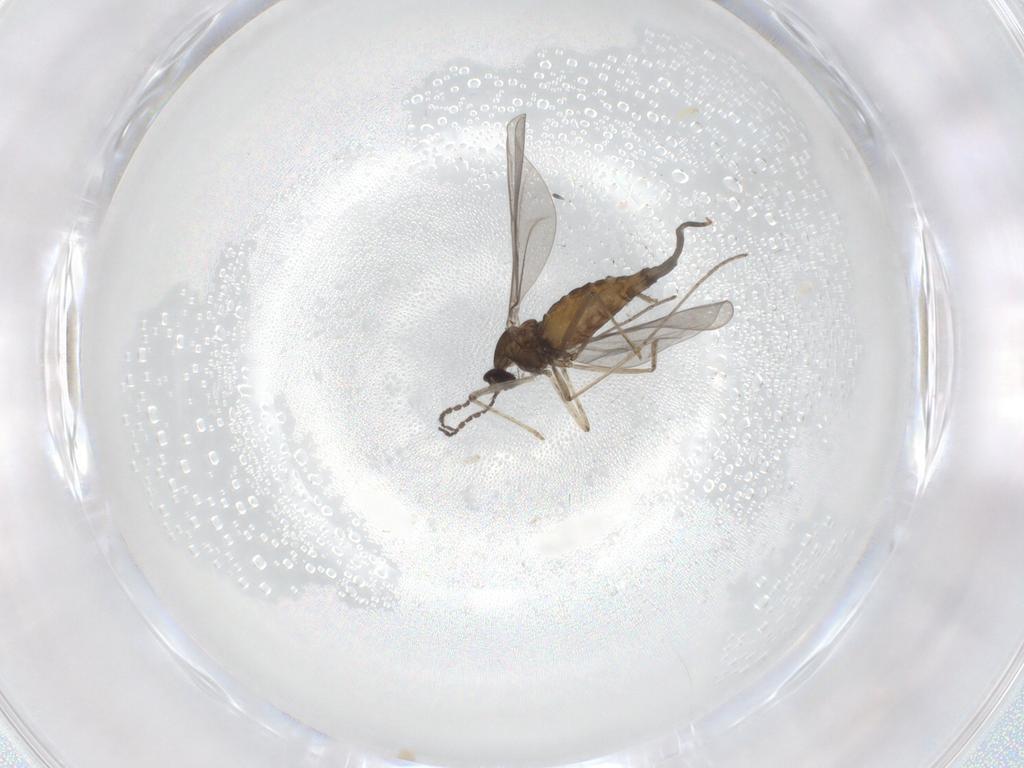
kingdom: Animalia
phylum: Arthropoda
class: Insecta
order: Diptera
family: Cecidomyiidae
